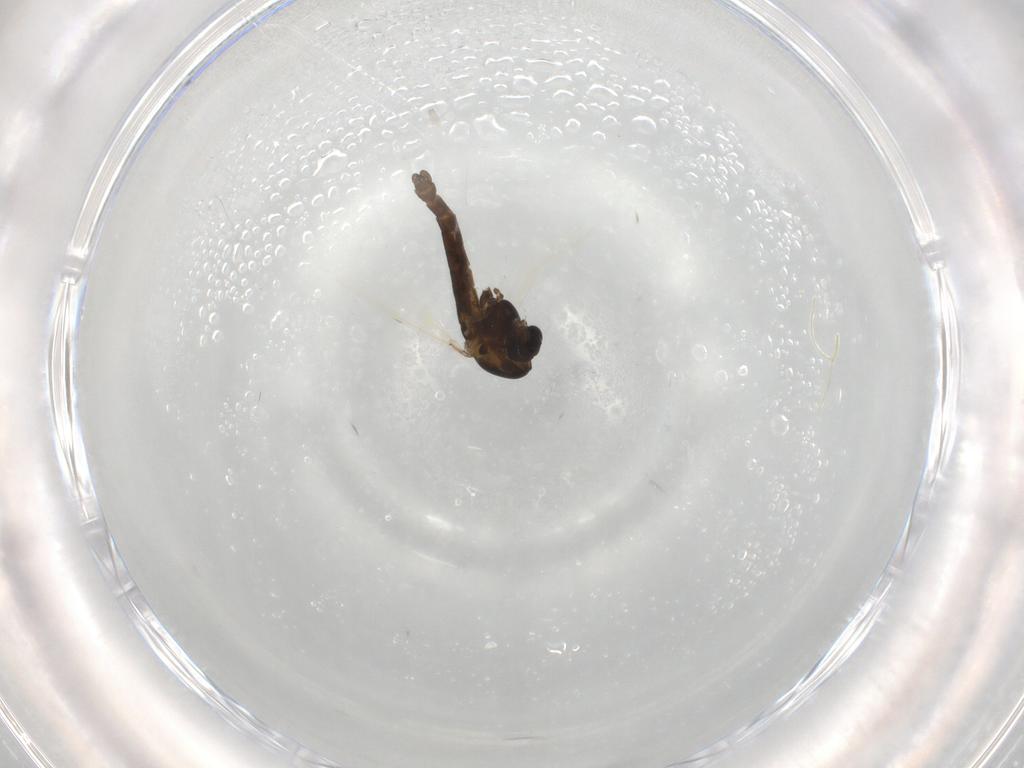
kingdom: Animalia
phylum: Arthropoda
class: Insecta
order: Diptera
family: Chironomidae
